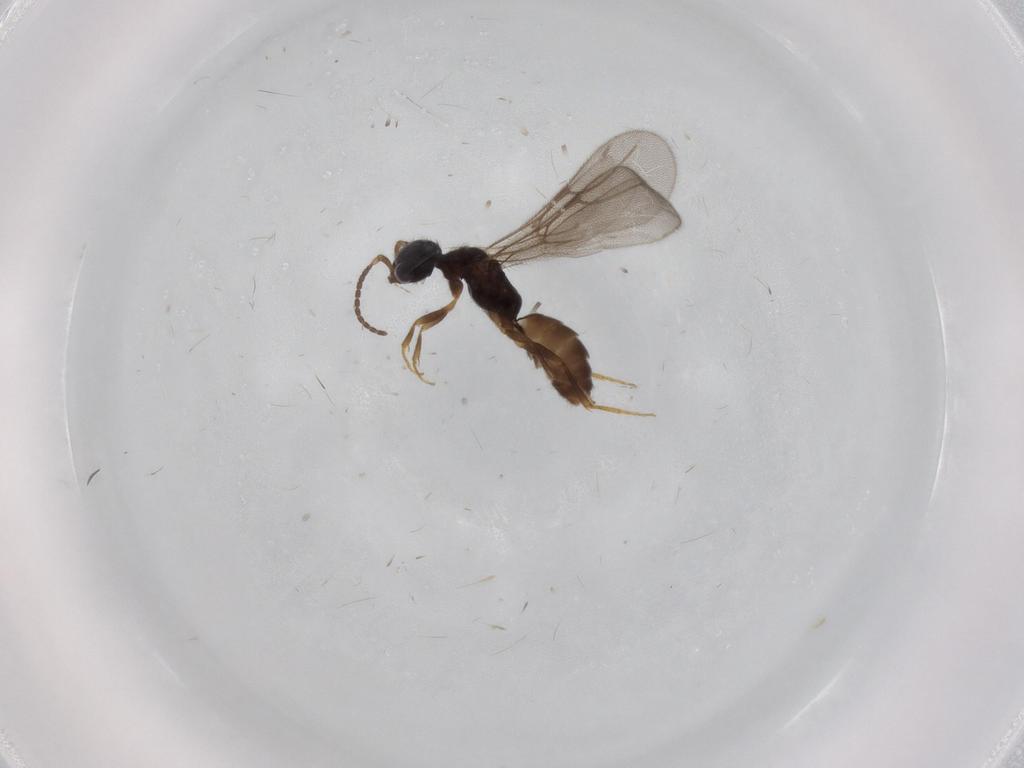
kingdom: Animalia
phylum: Arthropoda
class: Insecta
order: Hymenoptera
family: Bethylidae
